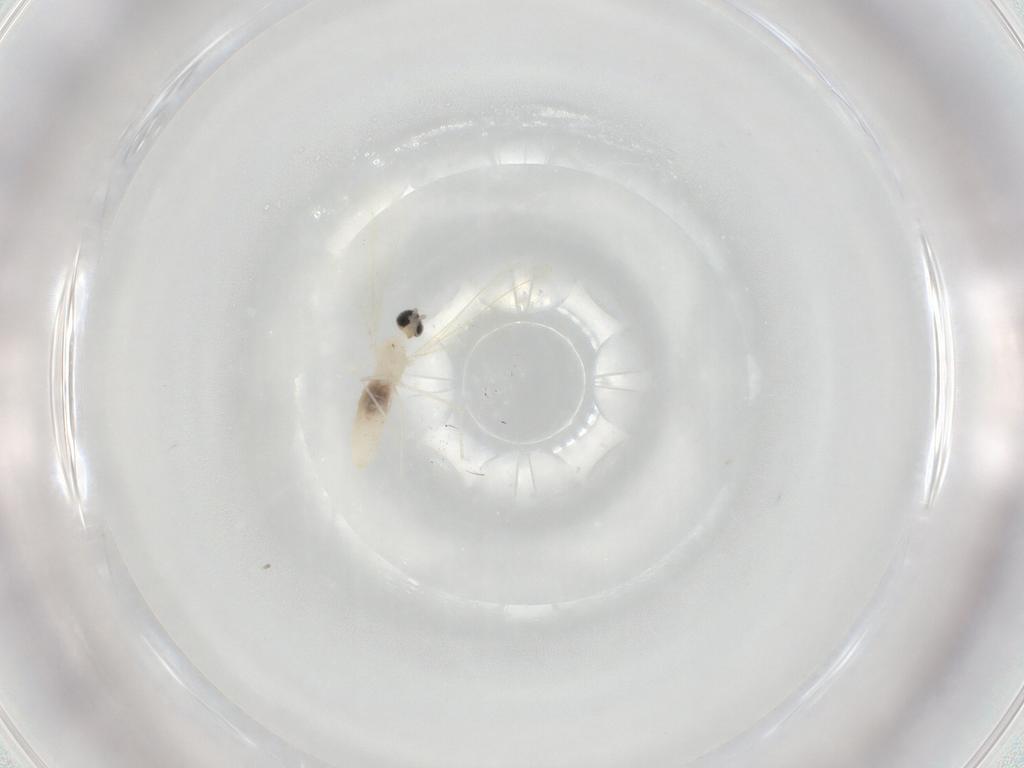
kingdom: Animalia
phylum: Arthropoda
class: Insecta
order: Diptera
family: Cecidomyiidae
